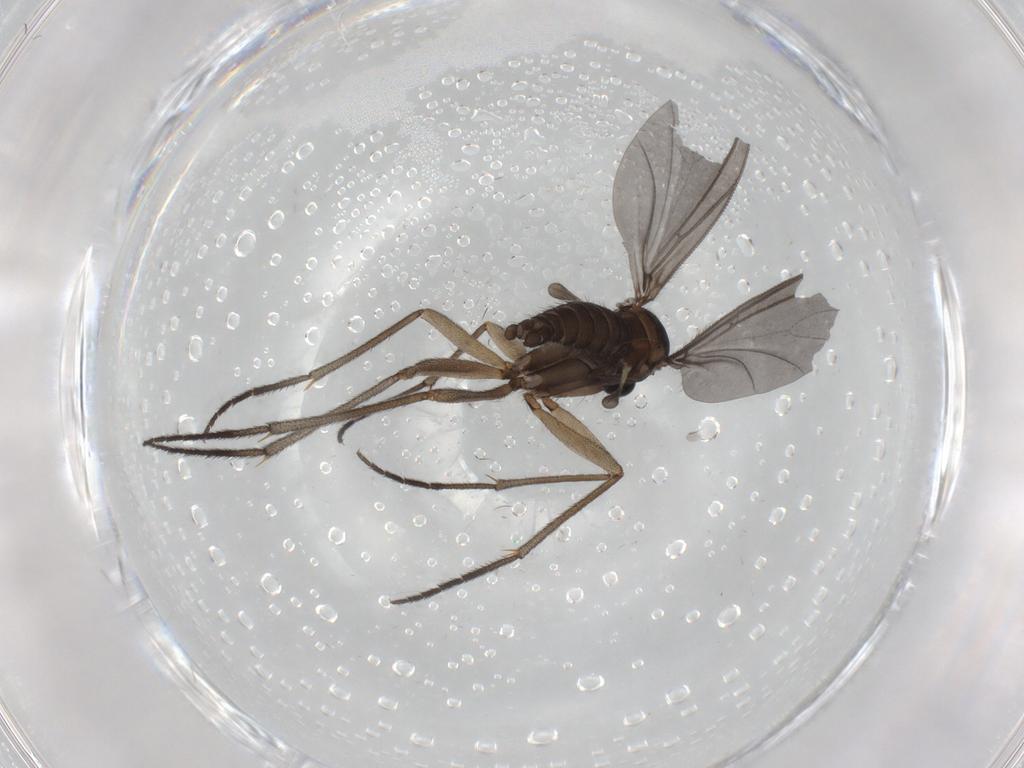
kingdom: Animalia
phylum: Arthropoda
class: Insecta
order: Diptera
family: Sciaridae
